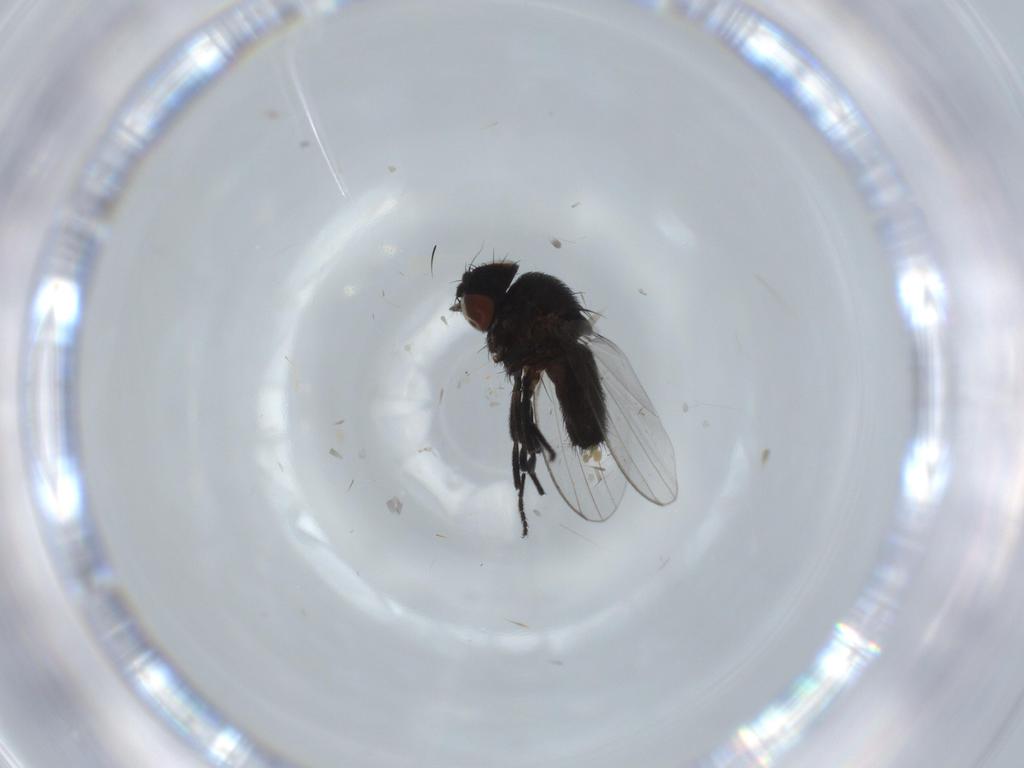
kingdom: Animalia
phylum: Arthropoda
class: Insecta
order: Diptera
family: Milichiidae
